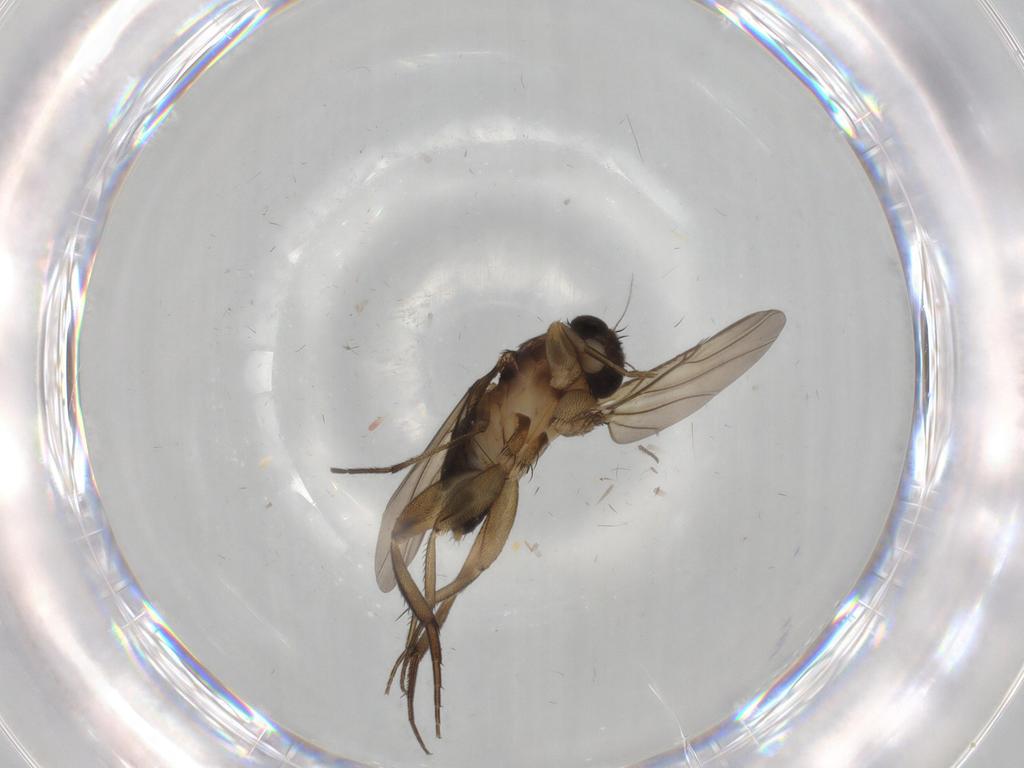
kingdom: Animalia
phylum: Arthropoda
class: Insecta
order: Diptera
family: Phoridae
